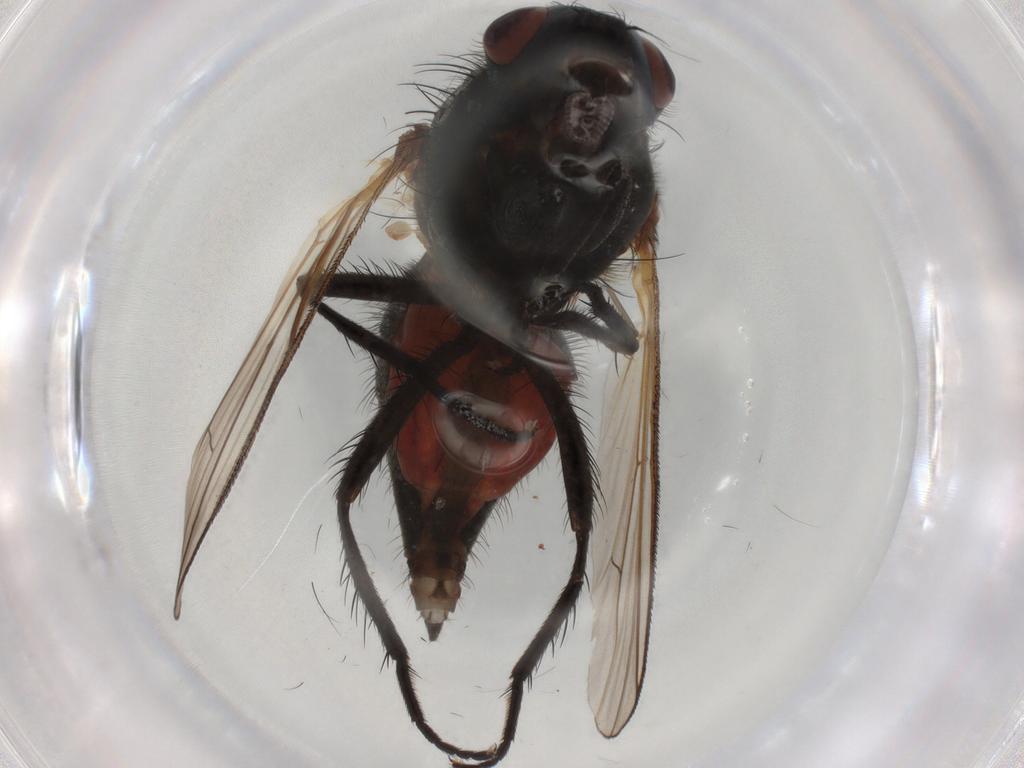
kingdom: Animalia
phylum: Arthropoda
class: Insecta
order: Diptera
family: Anthomyiidae
